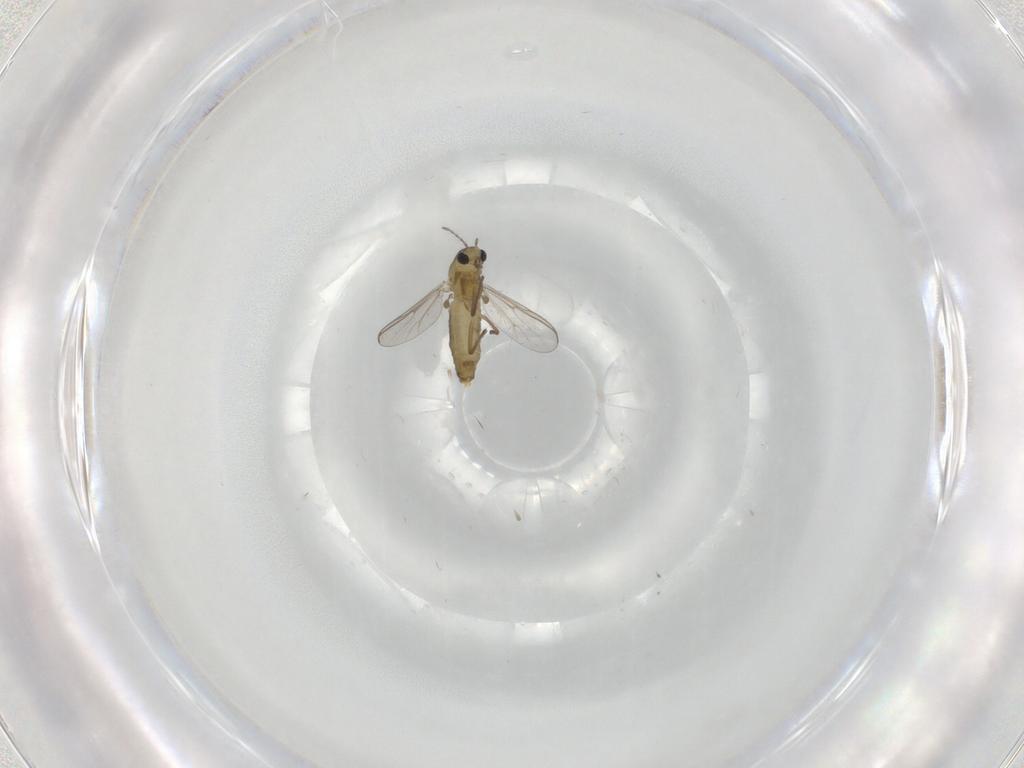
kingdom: Animalia
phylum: Arthropoda
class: Insecta
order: Diptera
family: Chironomidae
